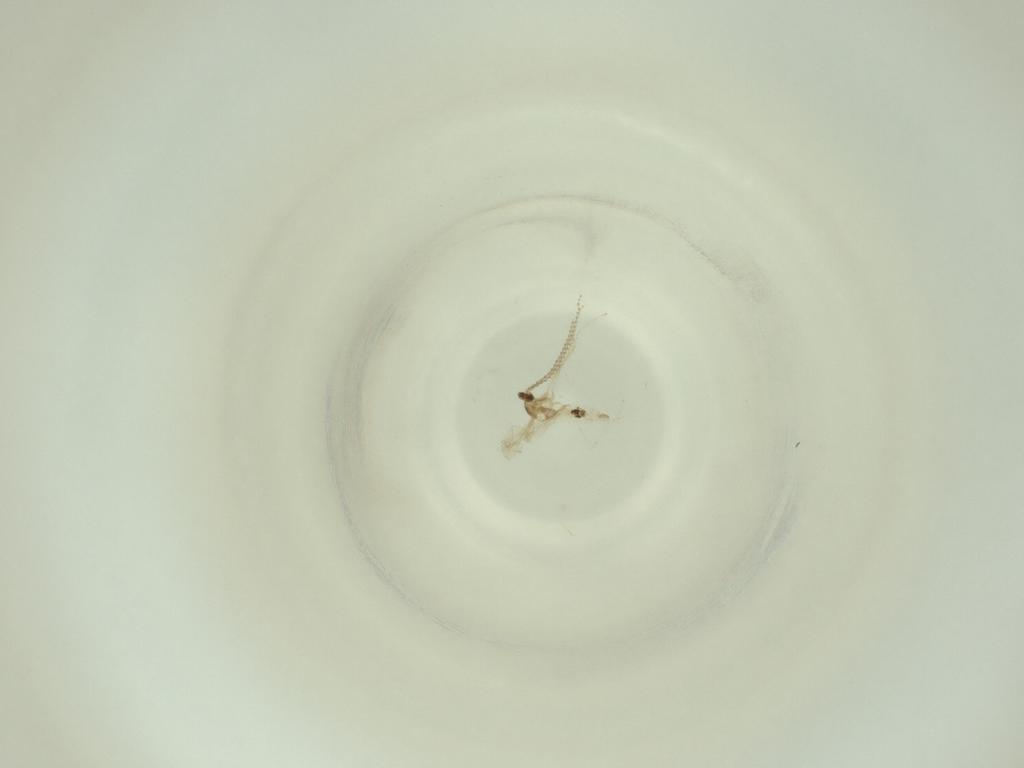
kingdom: Animalia
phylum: Arthropoda
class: Insecta
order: Diptera
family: Cecidomyiidae
